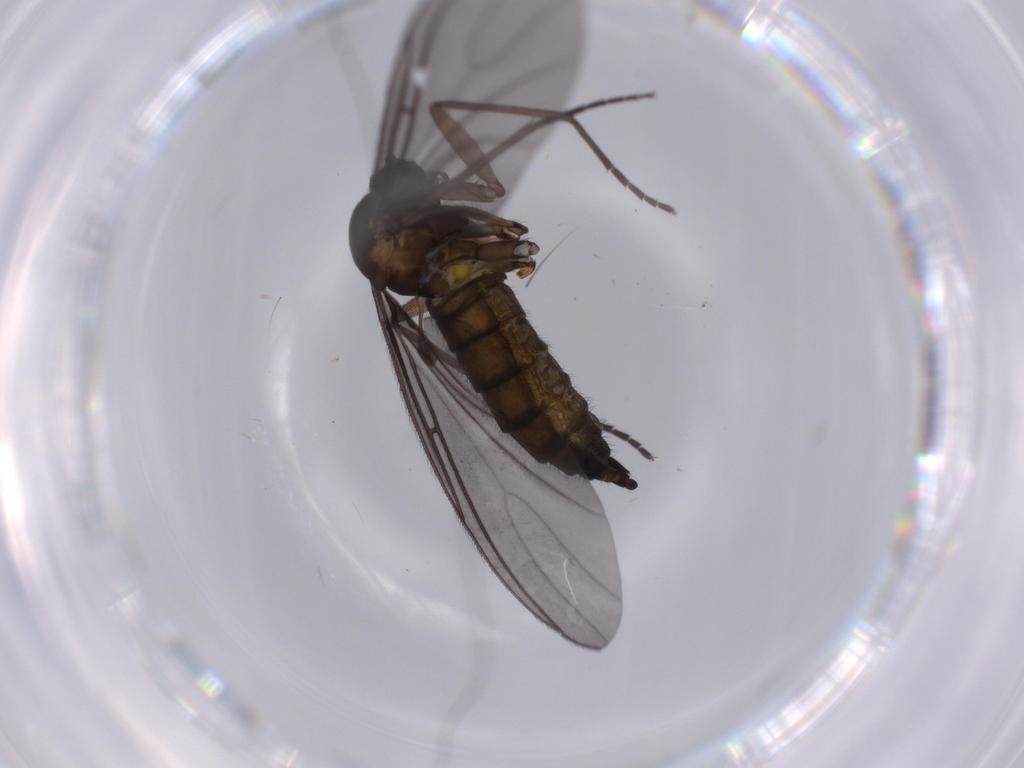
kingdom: Animalia
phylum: Arthropoda
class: Insecta
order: Diptera
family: Sciaridae
